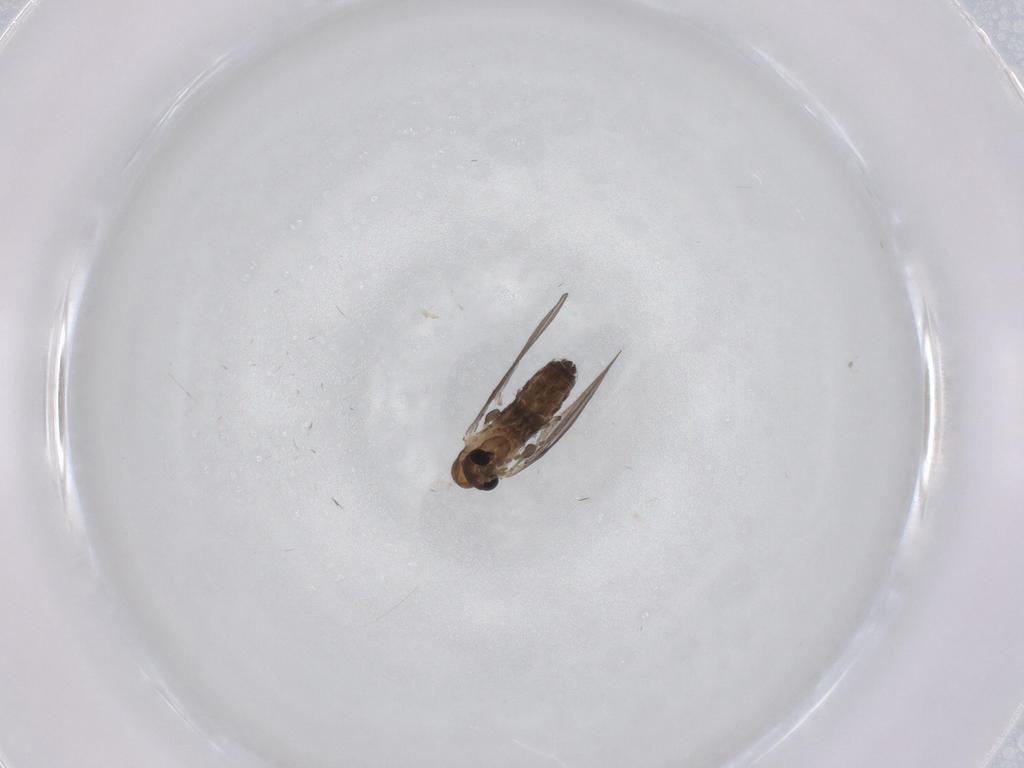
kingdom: Animalia
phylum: Arthropoda
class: Insecta
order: Diptera
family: Psychodidae
